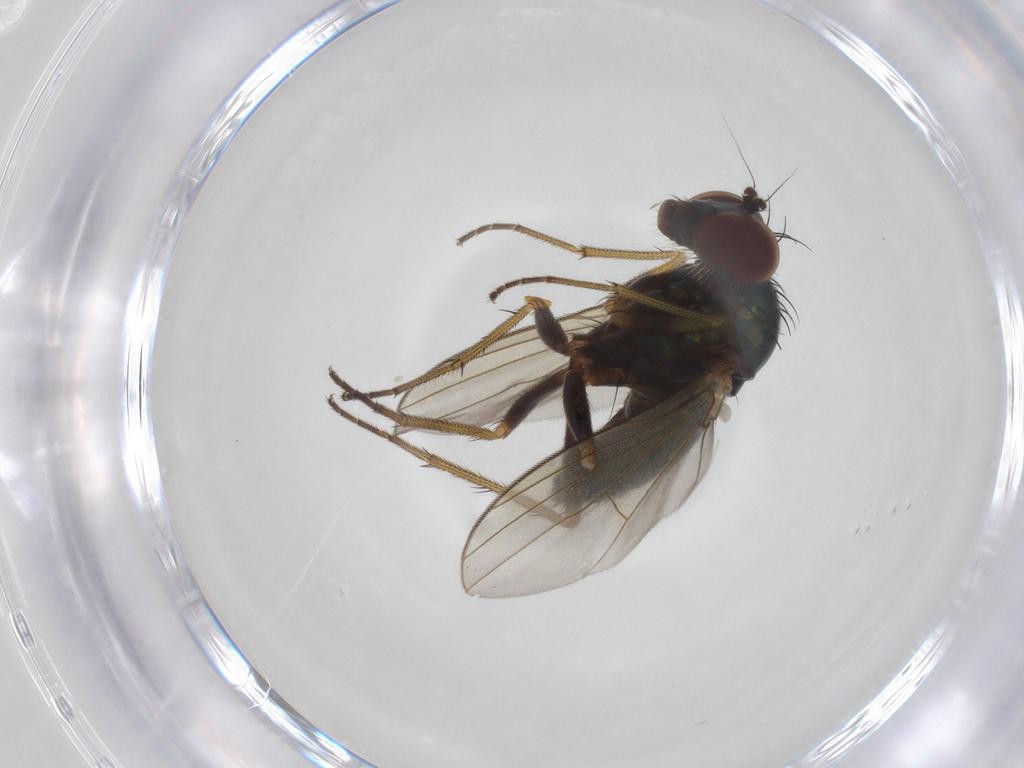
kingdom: Animalia
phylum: Arthropoda
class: Insecta
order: Diptera
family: Dolichopodidae
